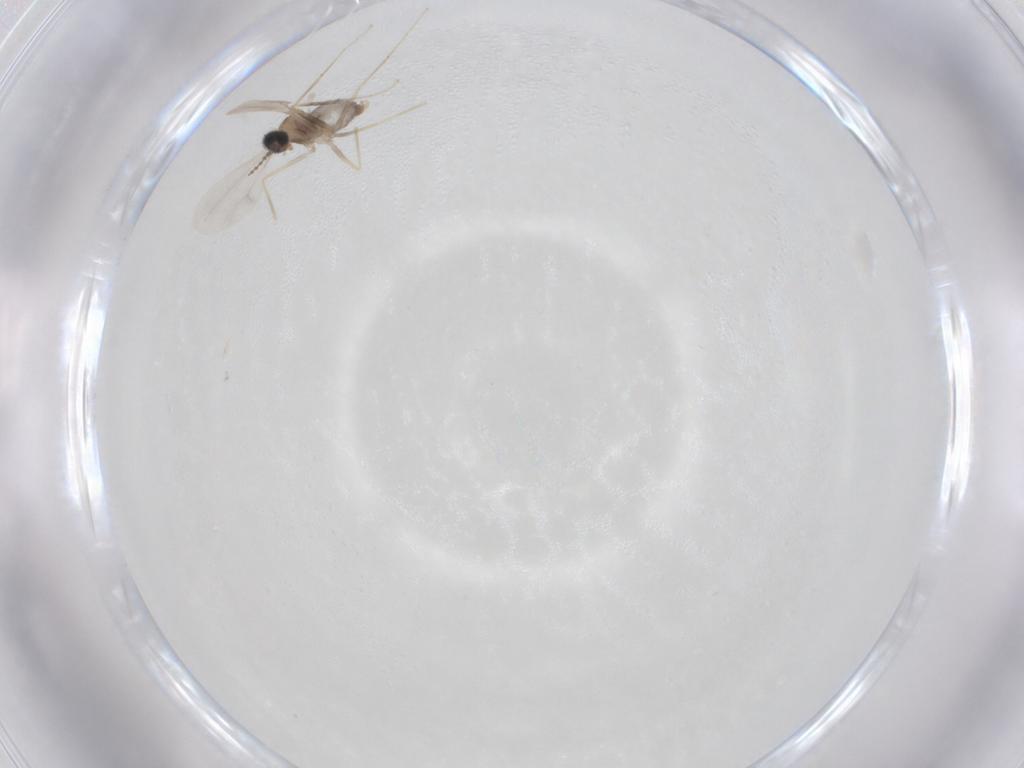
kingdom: Animalia
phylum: Arthropoda
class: Insecta
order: Diptera
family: Cecidomyiidae
